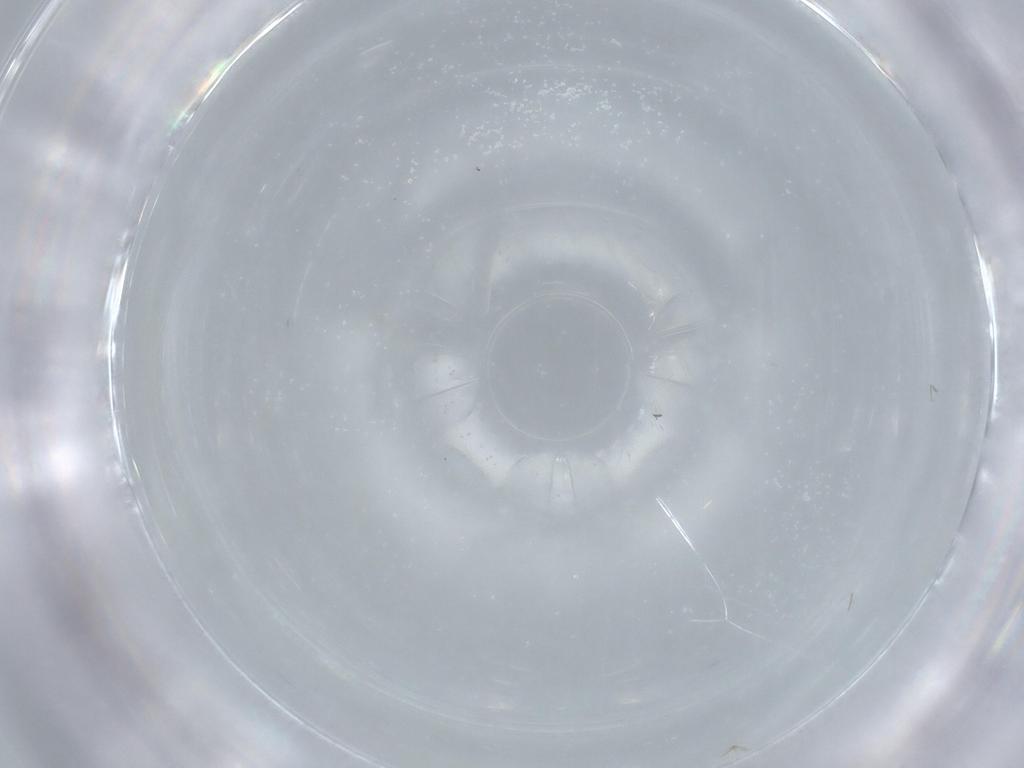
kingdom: Animalia
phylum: Arthropoda
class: Insecta
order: Diptera
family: Cecidomyiidae
